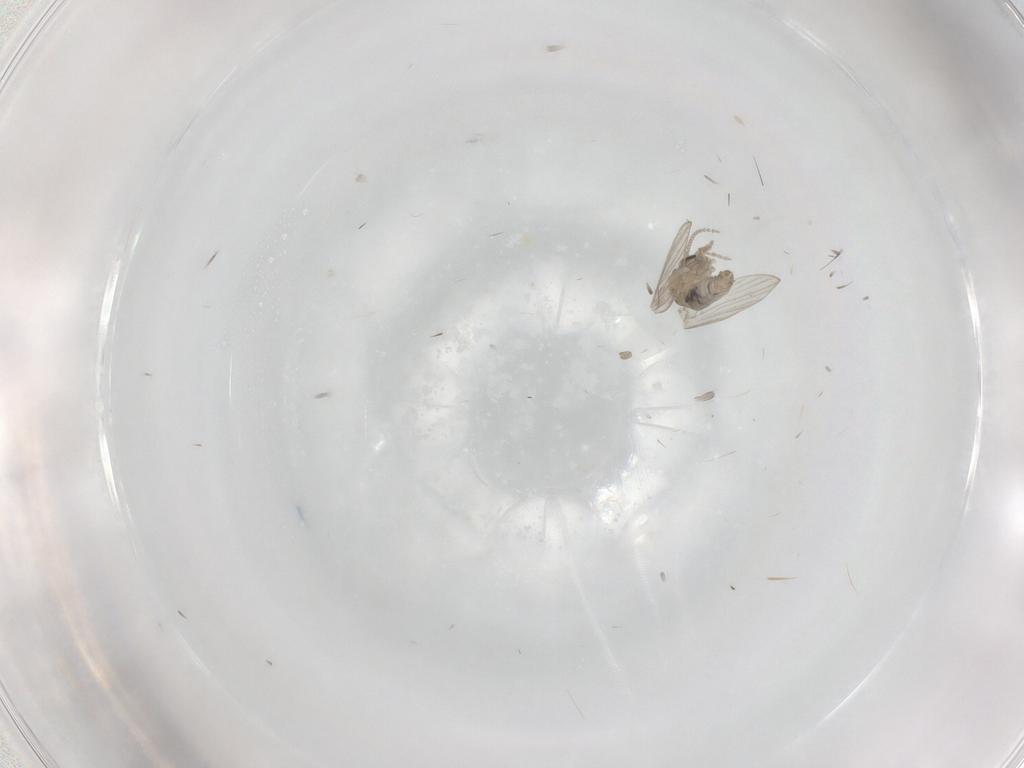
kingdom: Animalia
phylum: Arthropoda
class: Insecta
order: Diptera
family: Psychodidae
